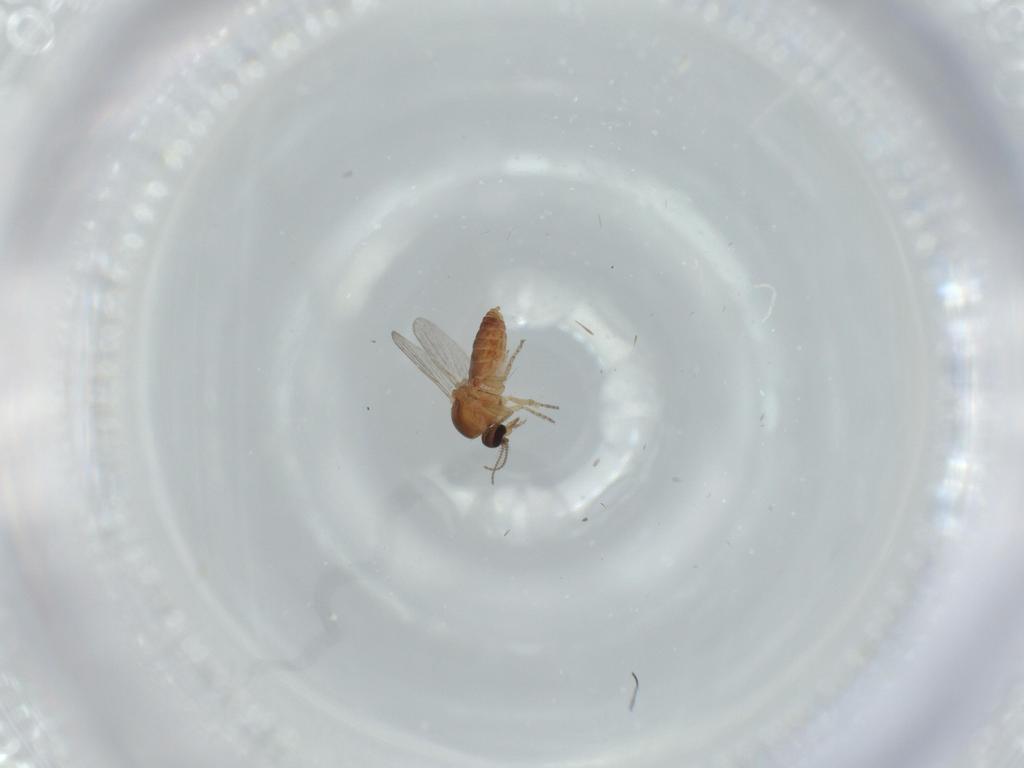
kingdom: Animalia
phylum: Arthropoda
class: Insecta
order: Diptera
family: Ceratopogonidae
